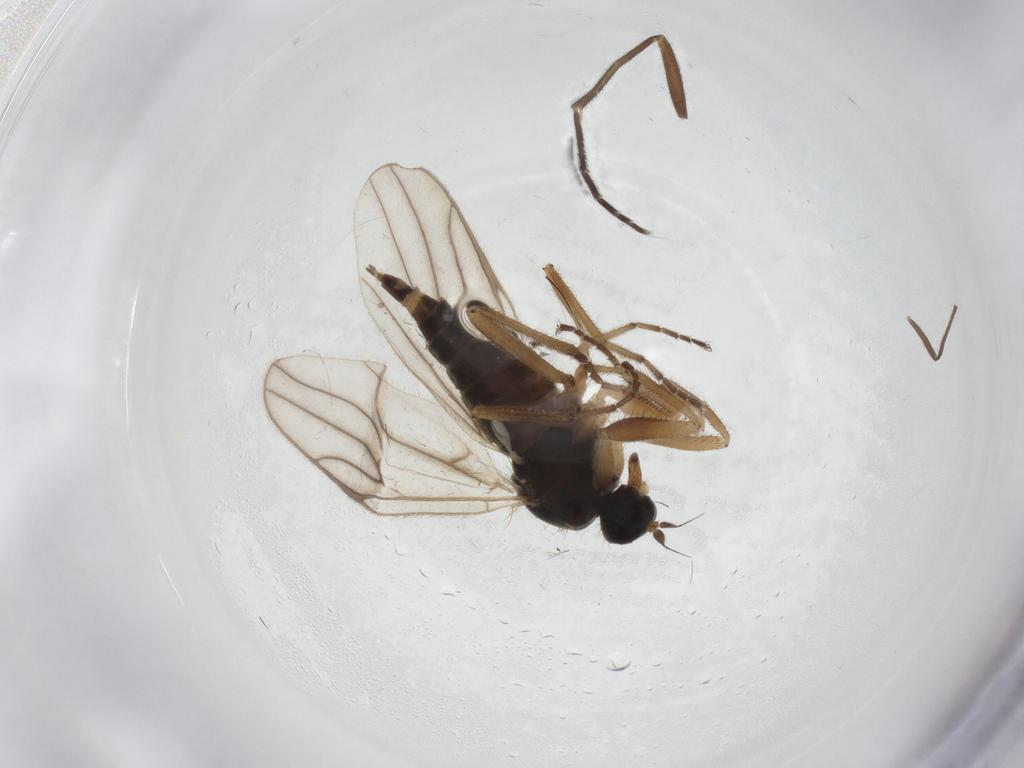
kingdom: Animalia
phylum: Arthropoda
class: Insecta
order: Diptera
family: Hybotidae
